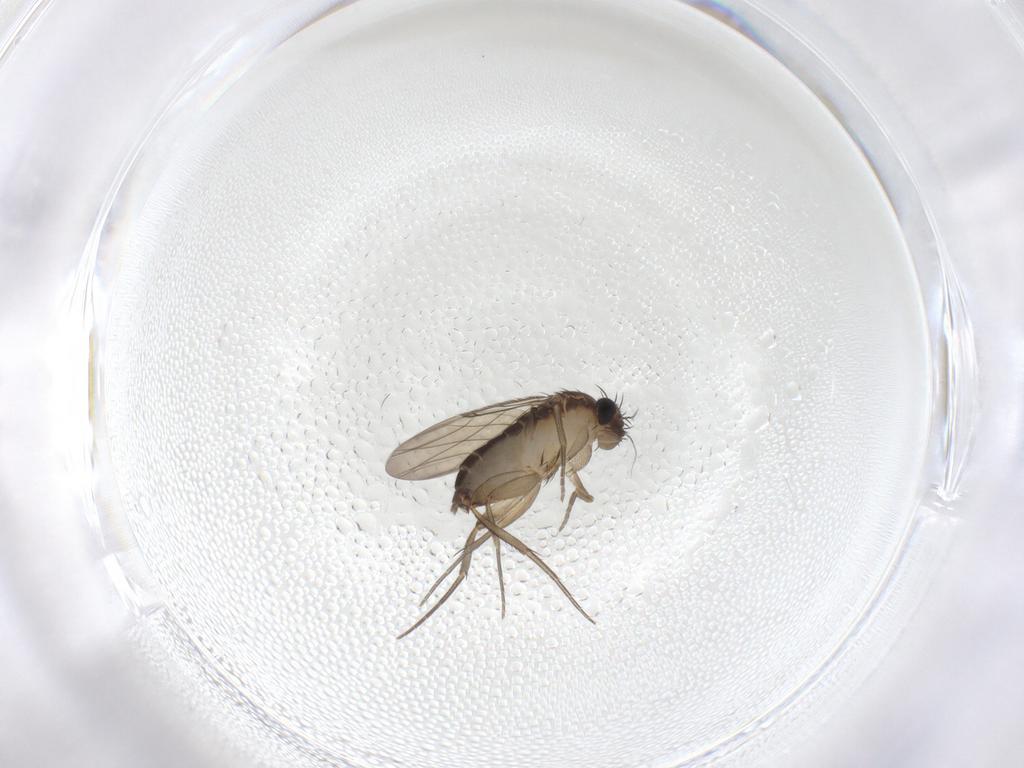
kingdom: Animalia
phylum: Arthropoda
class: Insecta
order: Diptera
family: Phoridae
